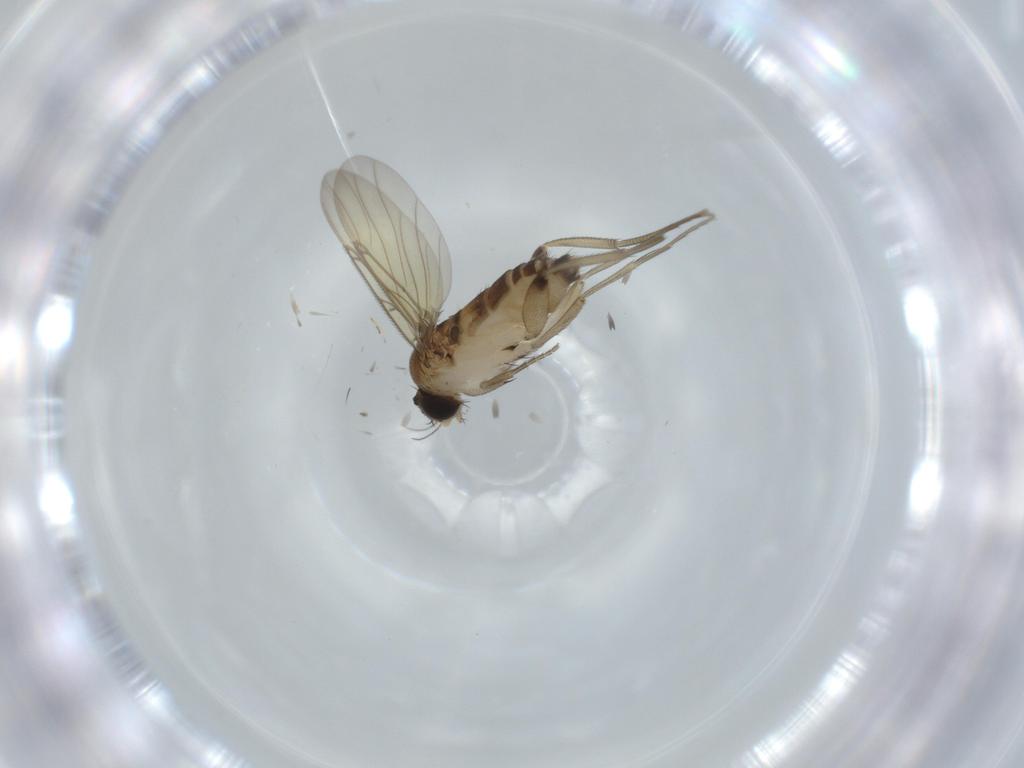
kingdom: Animalia
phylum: Arthropoda
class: Insecta
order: Diptera
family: Phoridae
